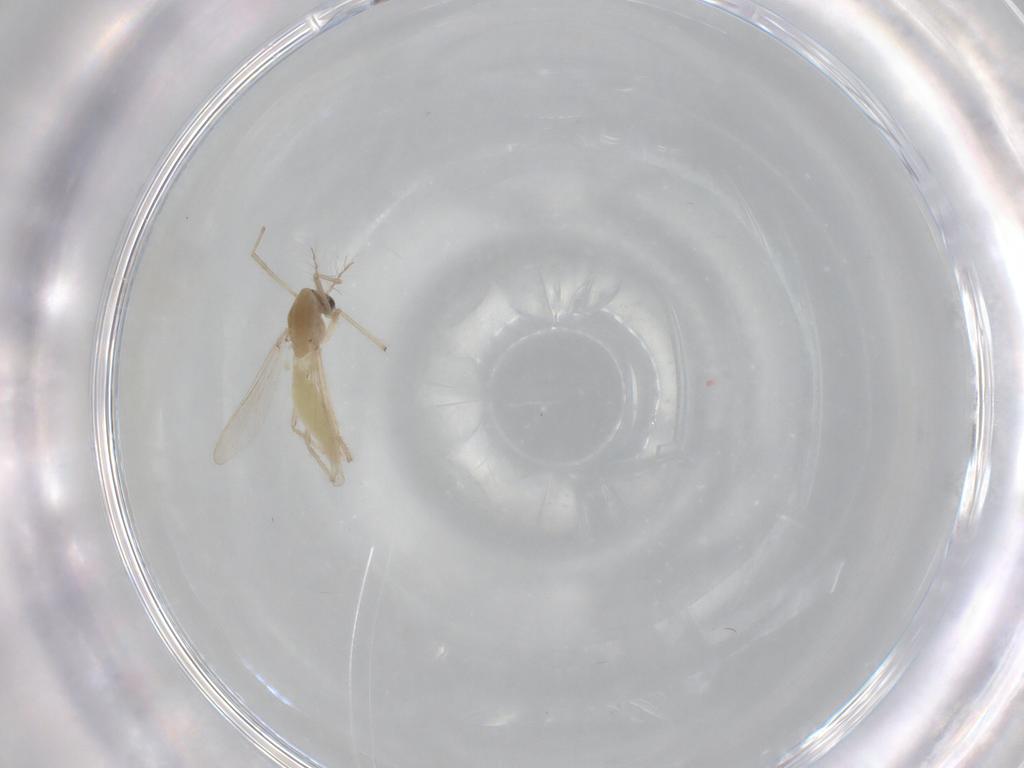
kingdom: Animalia
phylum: Arthropoda
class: Insecta
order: Diptera
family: Chironomidae
